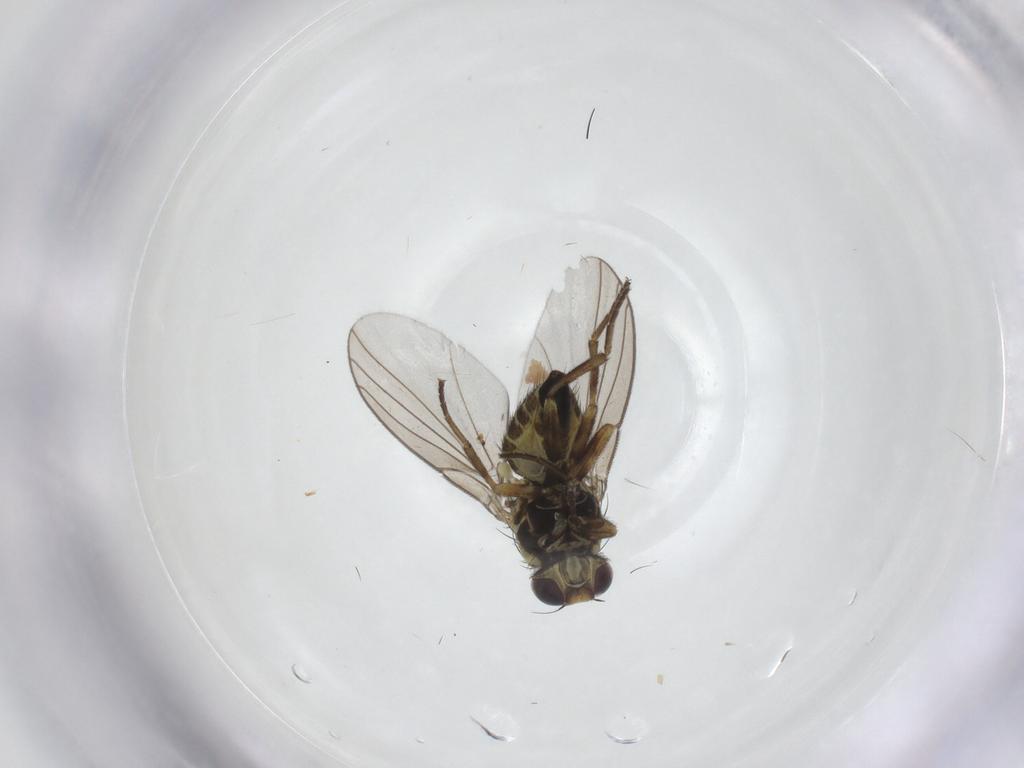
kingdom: Animalia
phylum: Arthropoda
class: Insecta
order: Diptera
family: Agromyzidae
